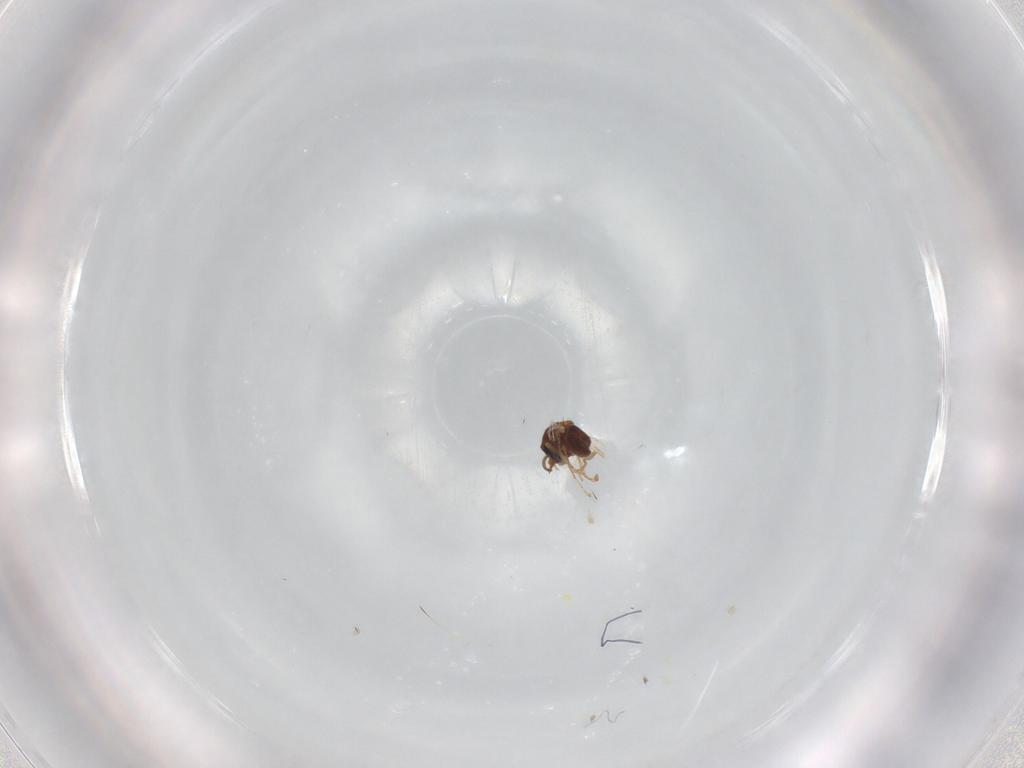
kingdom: Animalia
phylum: Arthropoda
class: Insecta
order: Diptera
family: Ceratopogonidae
